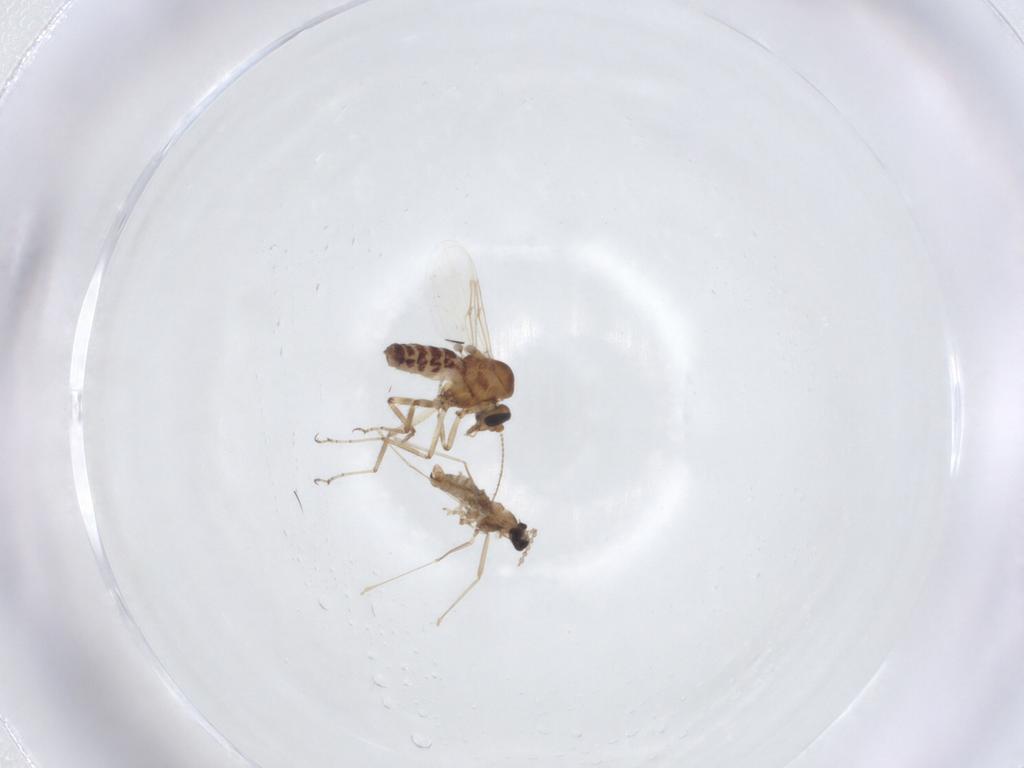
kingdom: Animalia
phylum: Arthropoda
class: Insecta
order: Diptera
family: Ceratopogonidae
